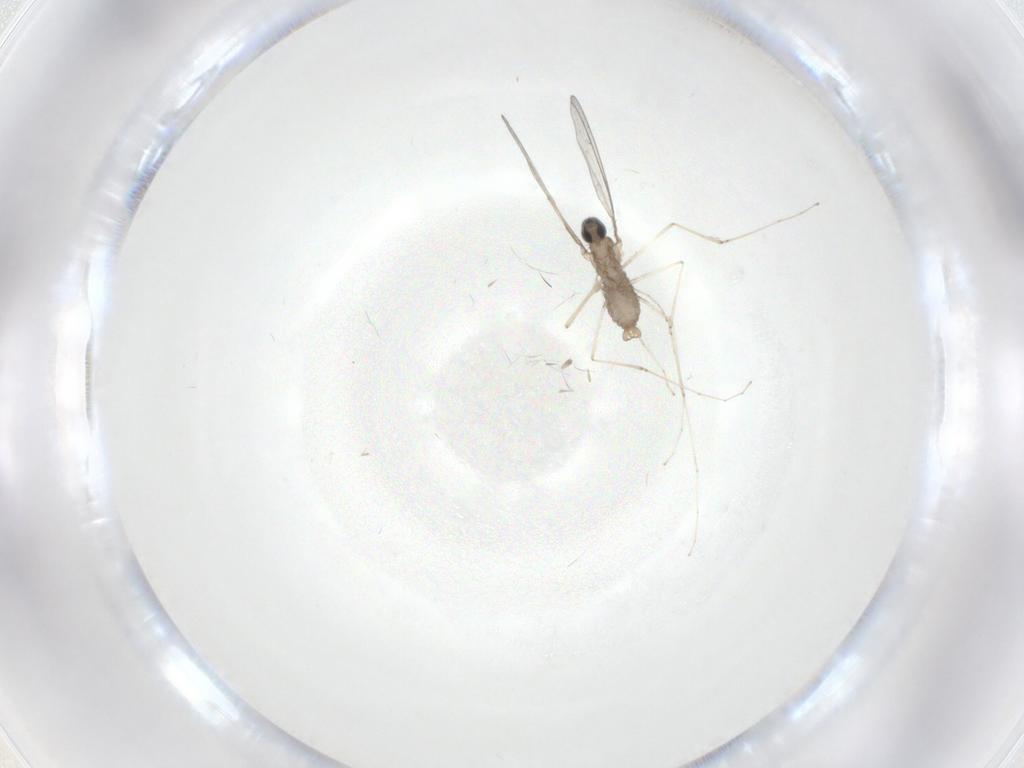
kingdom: Animalia
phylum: Arthropoda
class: Insecta
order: Diptera
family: Cecidomyiidae
